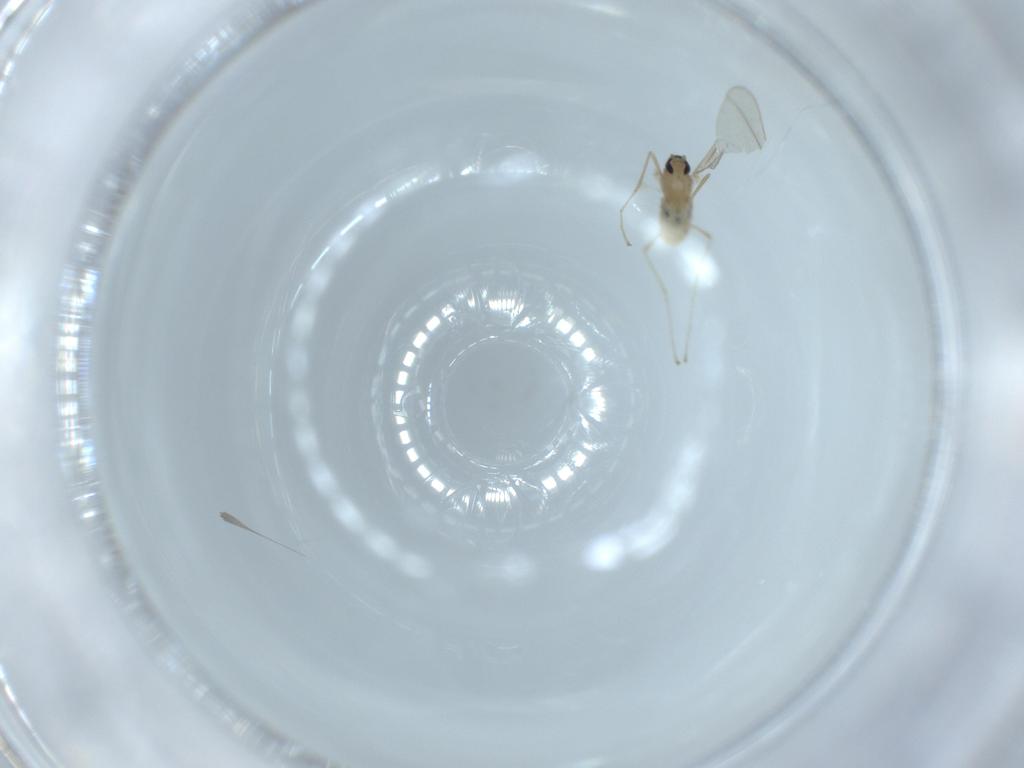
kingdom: Animalia
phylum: Arthropoda
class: Insecta
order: Diptera
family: Cecidomyiidae
